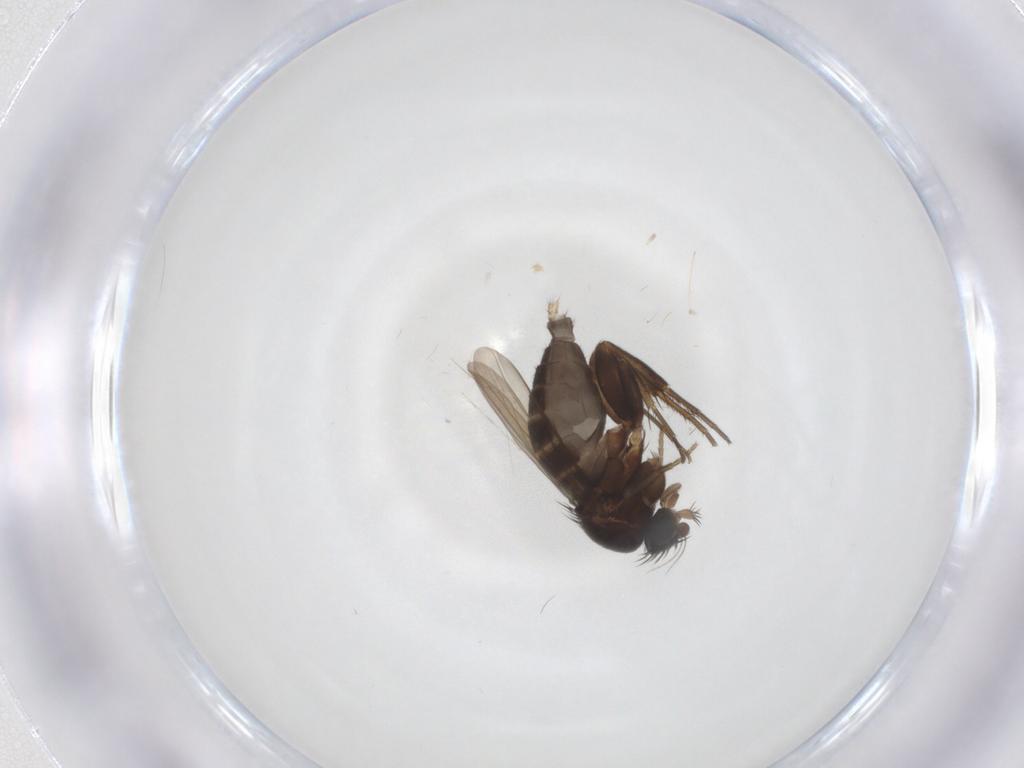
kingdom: Animalia
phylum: Arthropoda
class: Insecta
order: Diptera
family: Phoridae
